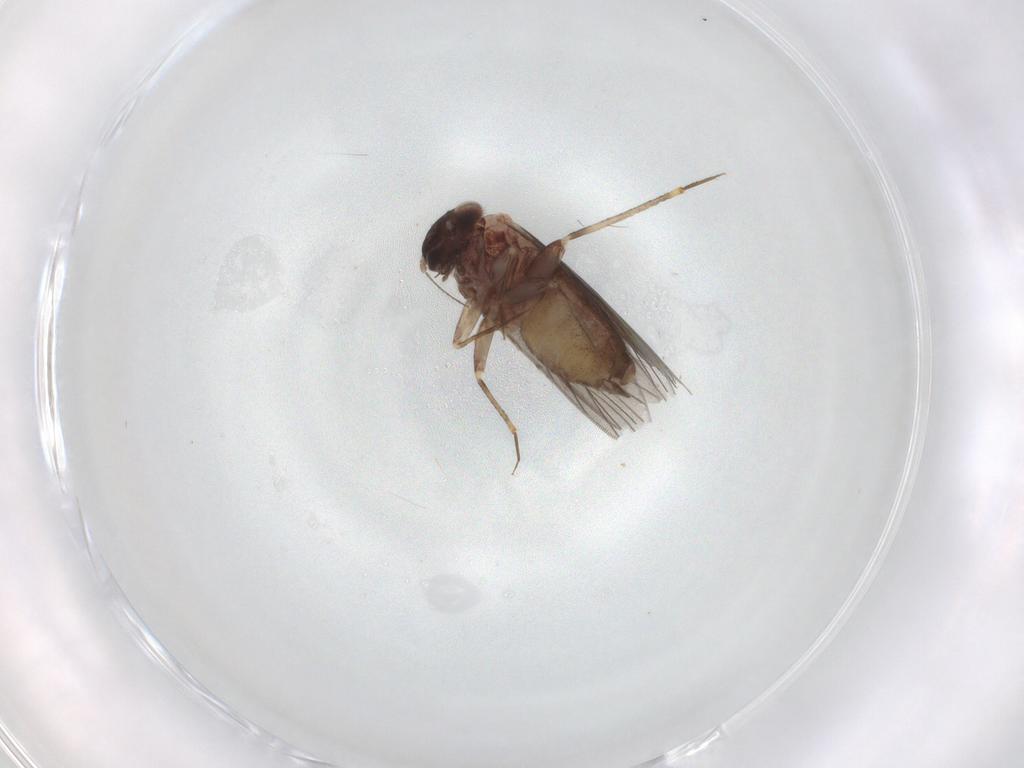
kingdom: Animalia
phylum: Arthropoda
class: Insecta
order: Psocodea
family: Lepidopsocidae
